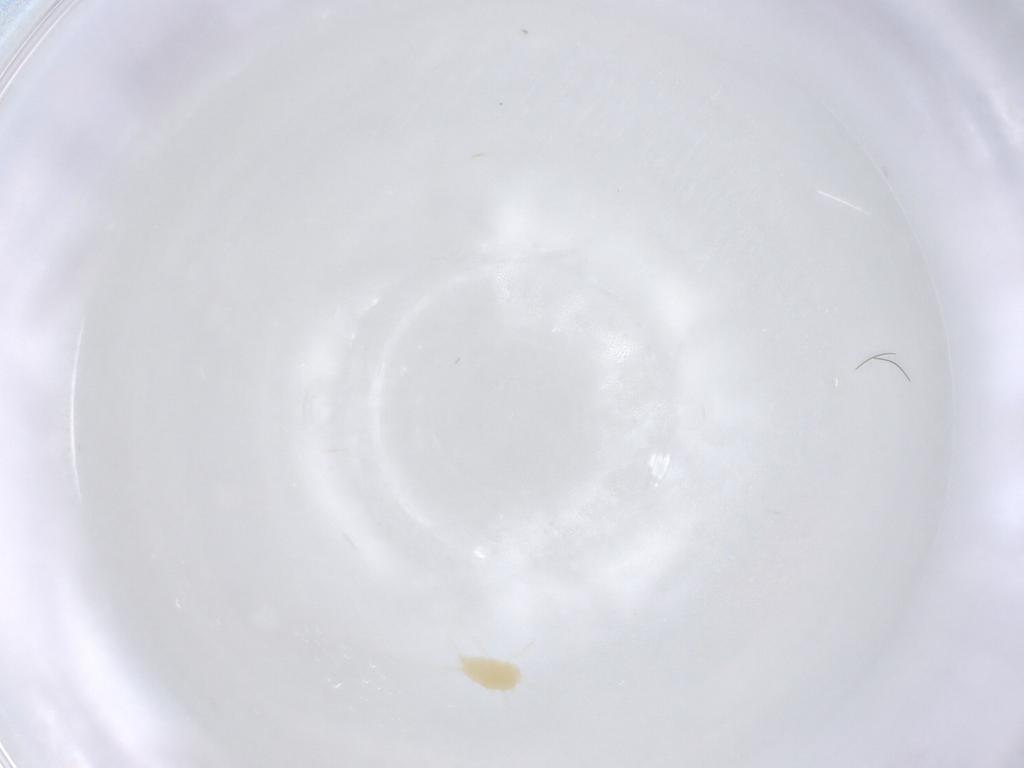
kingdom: Animalia
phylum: Arthropoda
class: Arachnida
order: Trombidiformes
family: Tetranychidae
